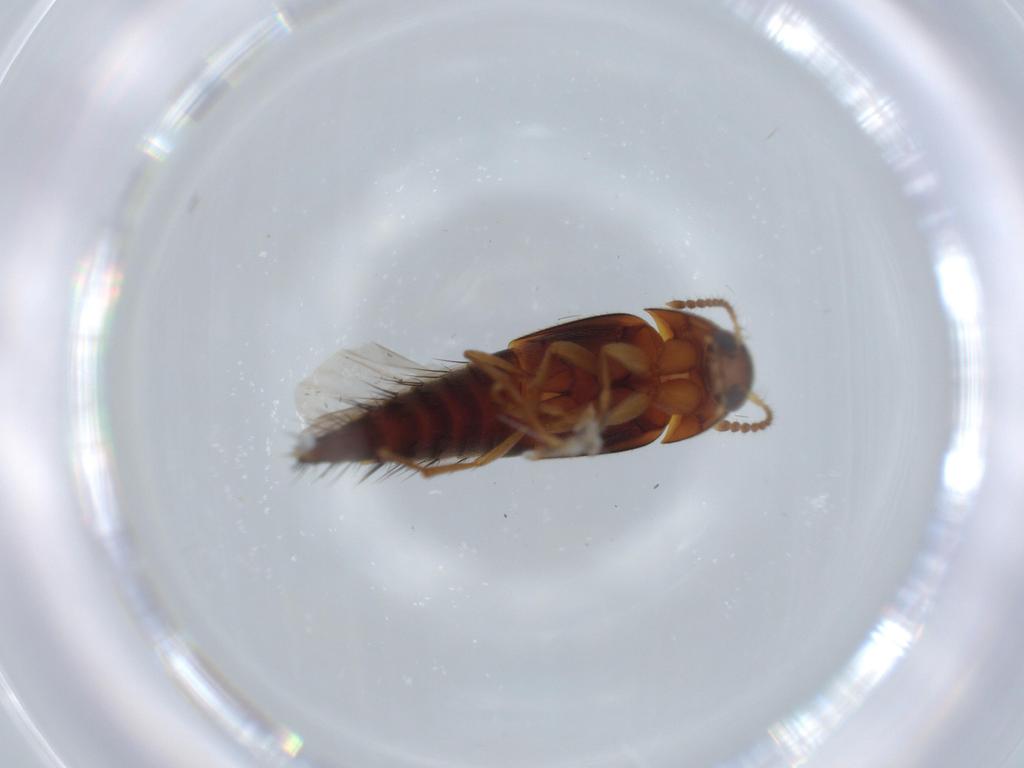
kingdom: Animalia
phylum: Arthropoda
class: Insecta
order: Coleoptera
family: Staphylinidae
